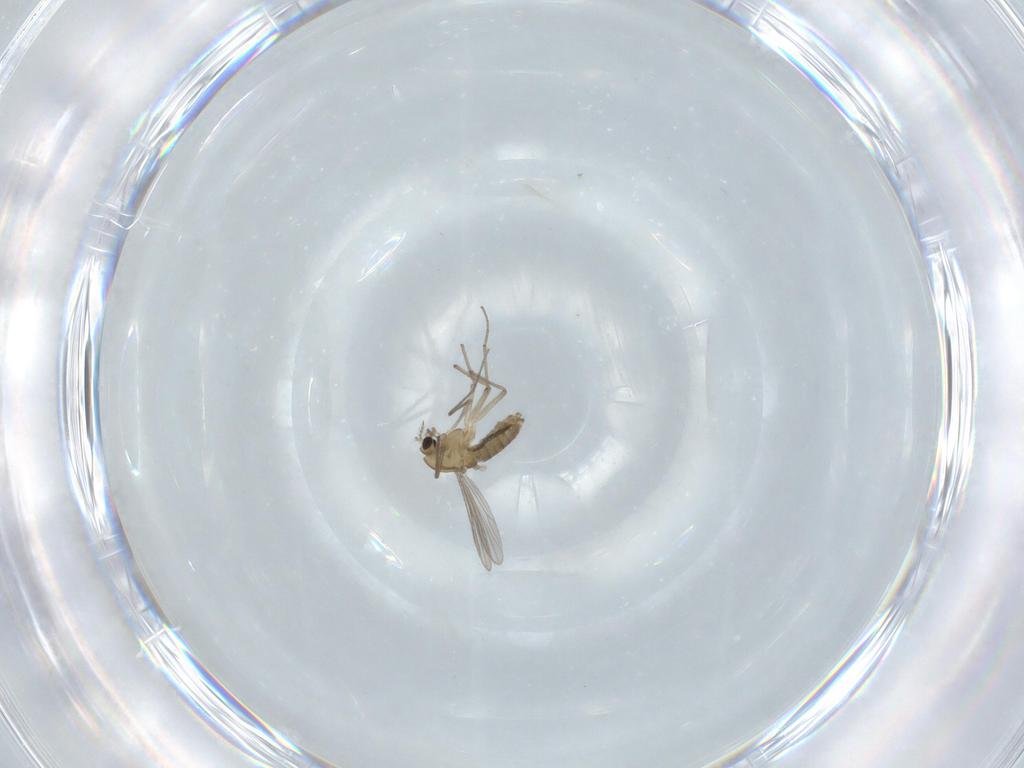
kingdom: Animalia
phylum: Arthropoda
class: Insecta
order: Diptera
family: Chironomidae
